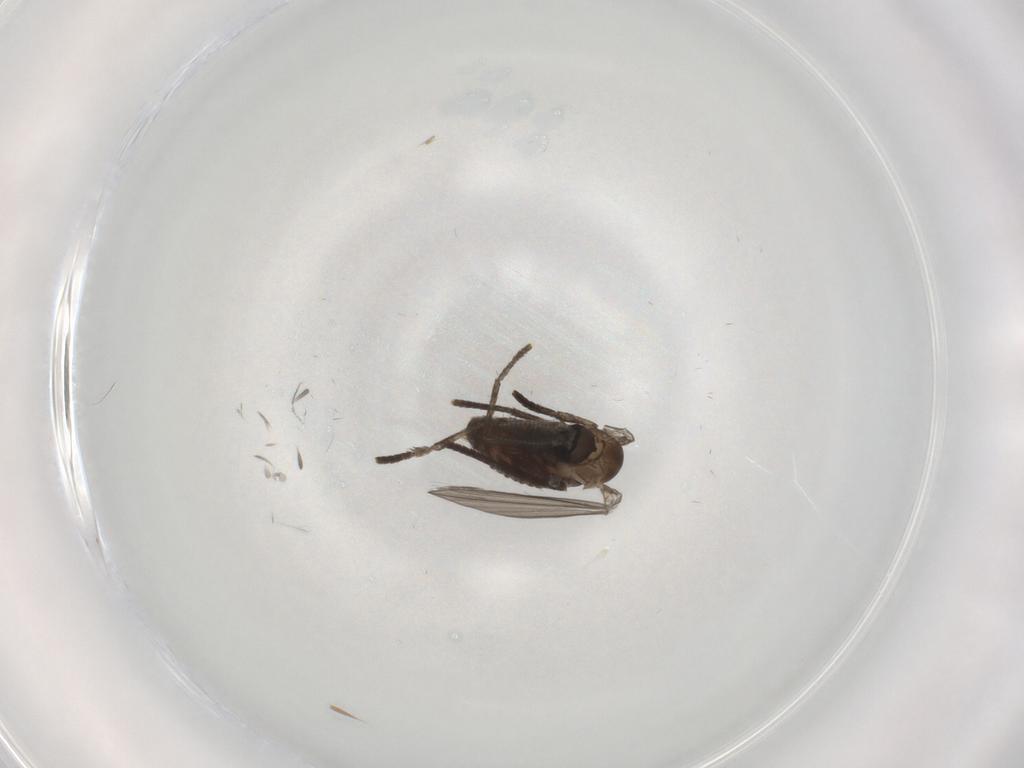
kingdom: Animalia
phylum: Arthropoda
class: Insecta
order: Diptera
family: Psychodidae
